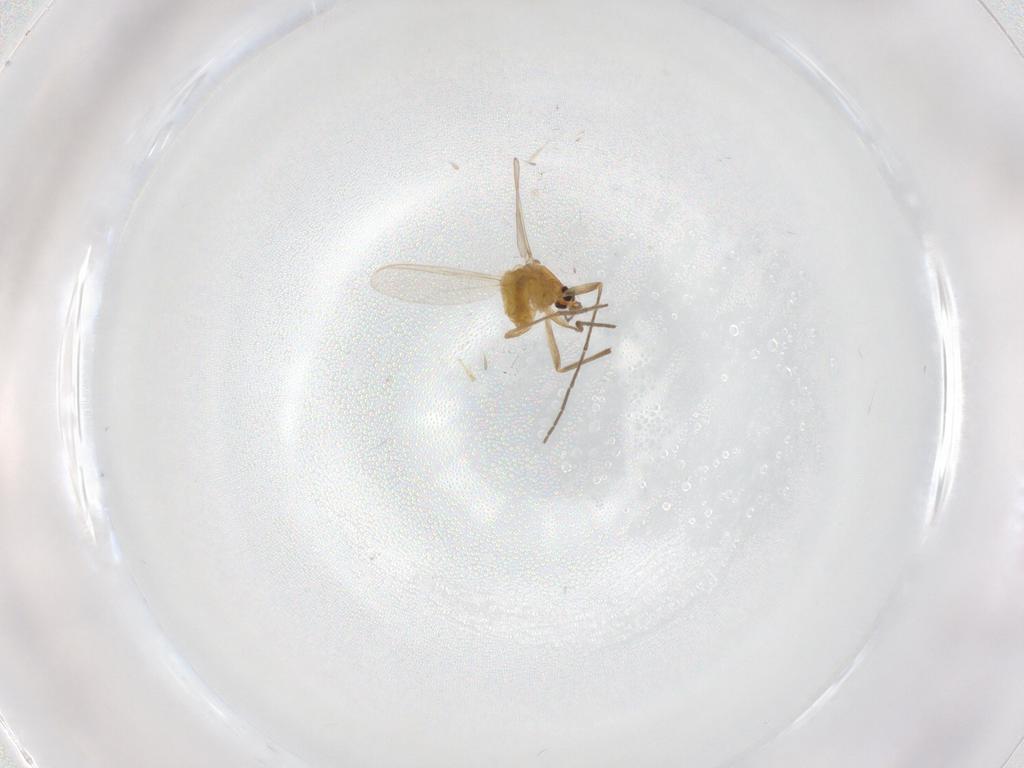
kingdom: Animalia
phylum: Arthropoda
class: Insecta
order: Diptera
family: Chironomidae
